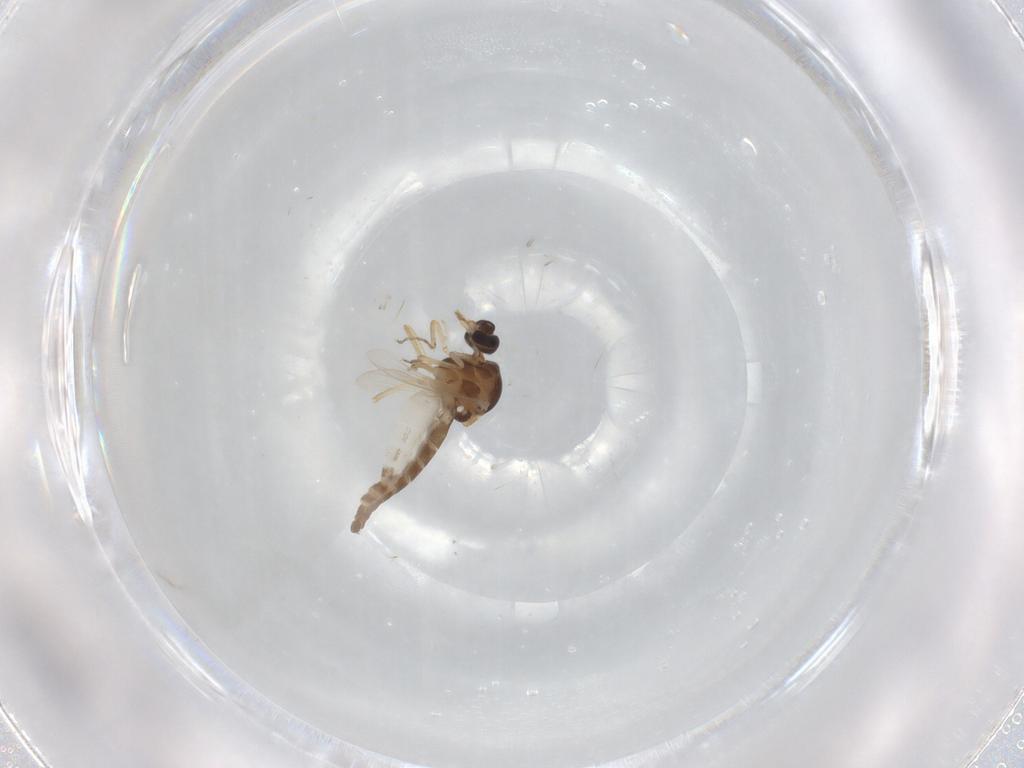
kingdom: Animalia
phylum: Arthropoda
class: Insecta
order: Diptera
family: Ceratopogonidae
